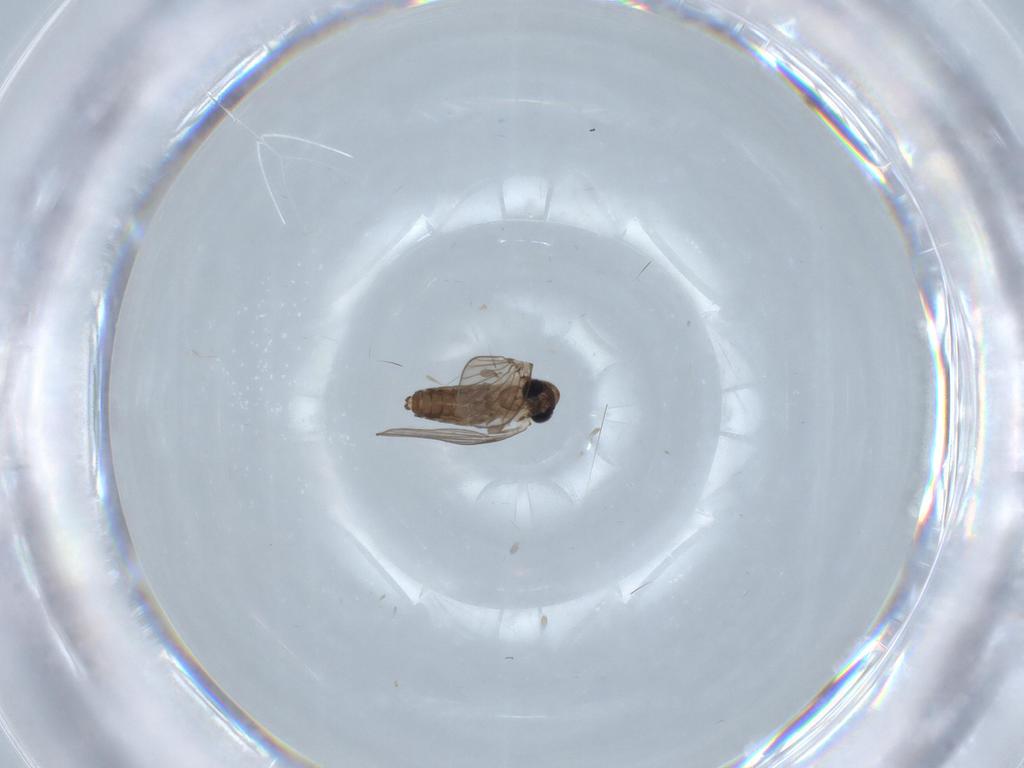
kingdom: Animalia
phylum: Arthropoda
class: Insecta
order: Diptera
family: Psychodidae
